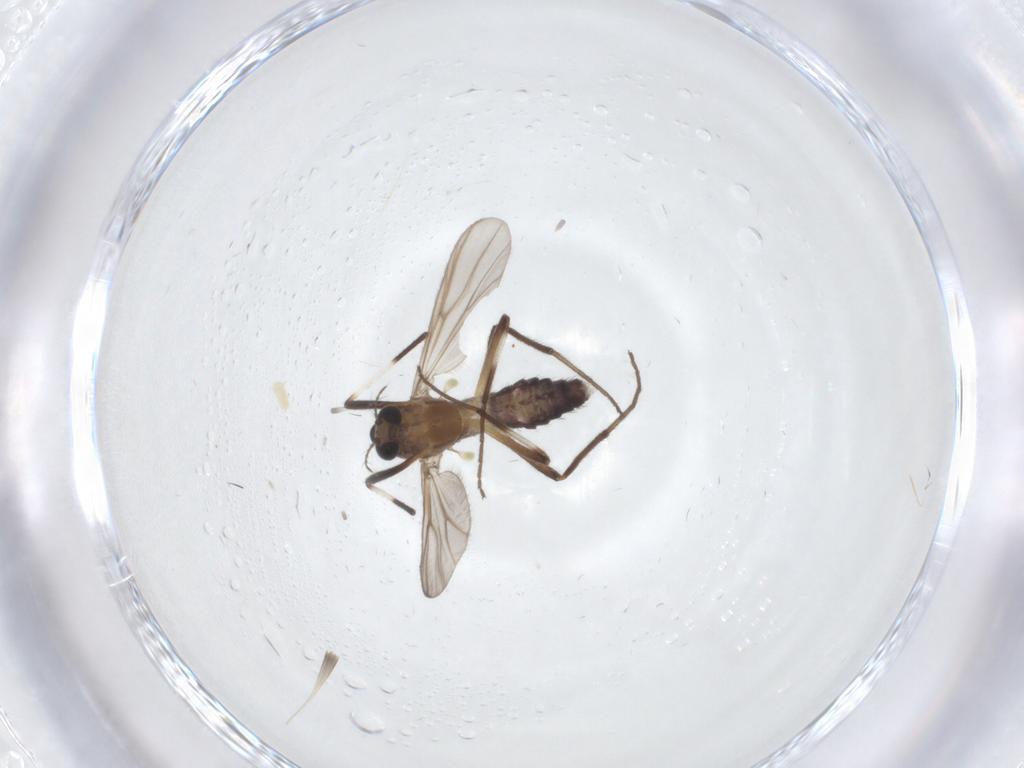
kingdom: Animalia
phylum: Arthropoda
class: Insecta
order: Diptera
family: Chironomidae
